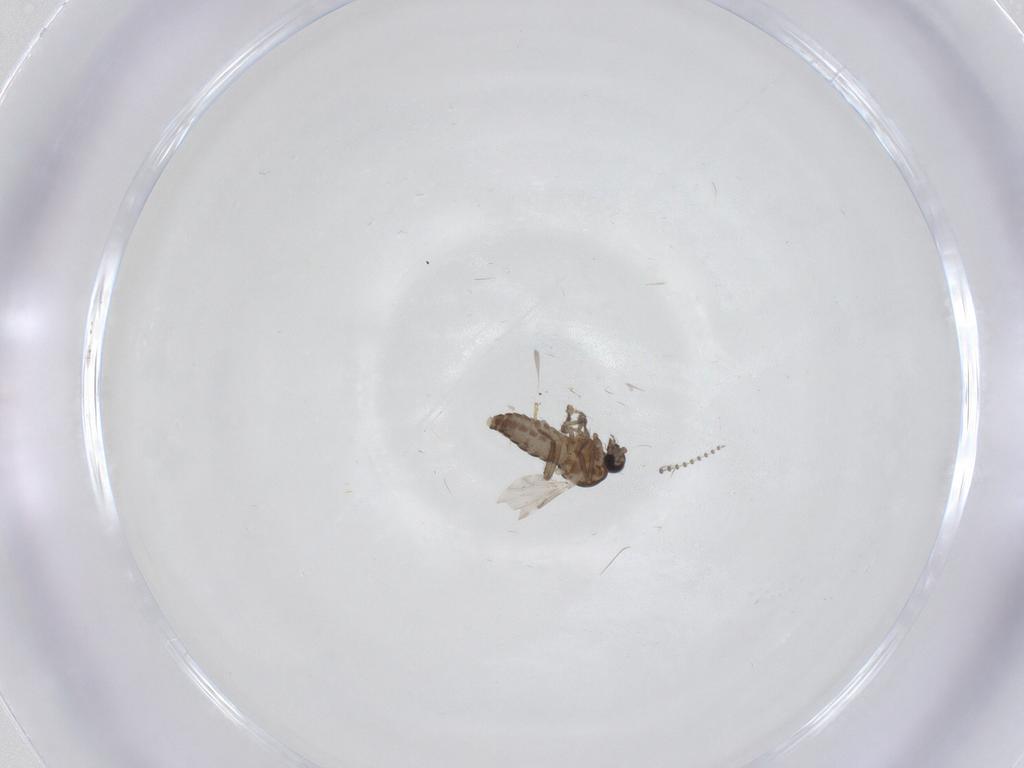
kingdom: Animalia
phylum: Arthropoda
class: Insecta
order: Diptera
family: Ceratopogonidae
